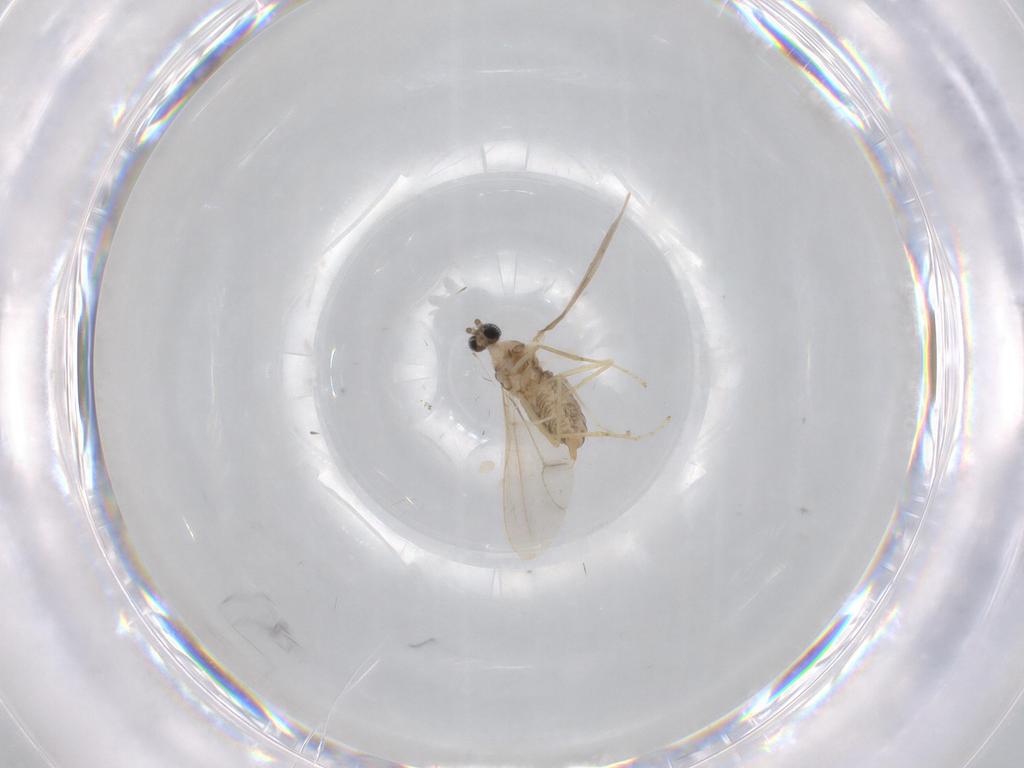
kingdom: Animalia
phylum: Arthropoda
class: Insecta
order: Diptera
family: Cecidomyiidae
